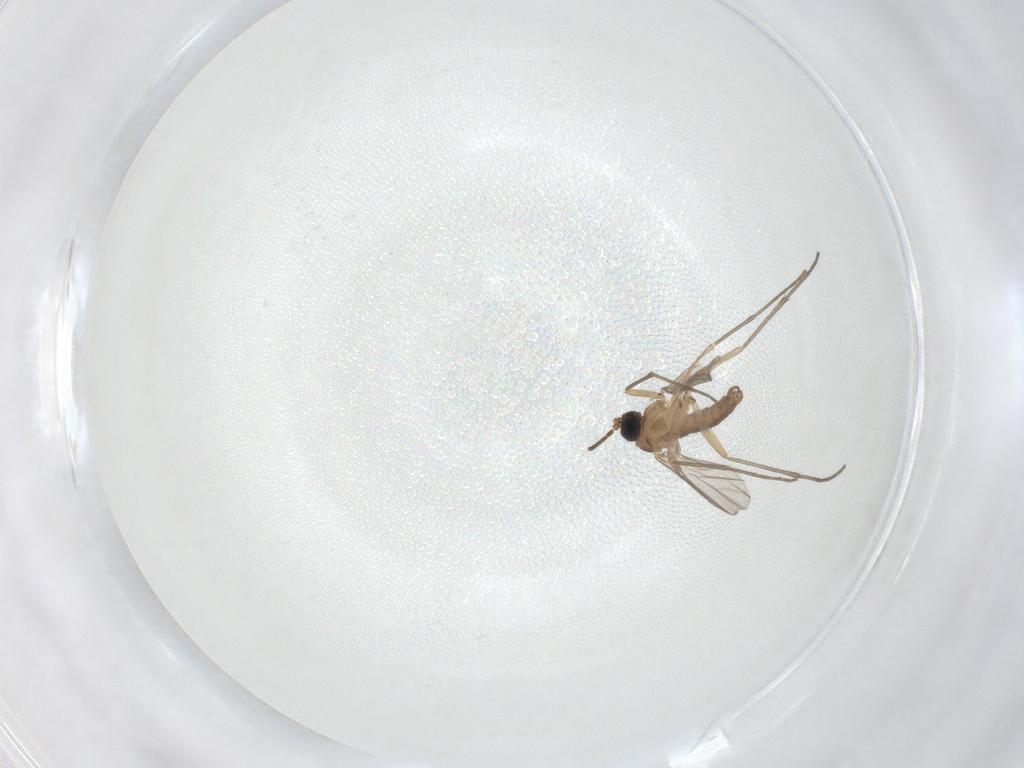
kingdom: Animalia
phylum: Arthropoda
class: Insecta
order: Diptera
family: Sciaridae
